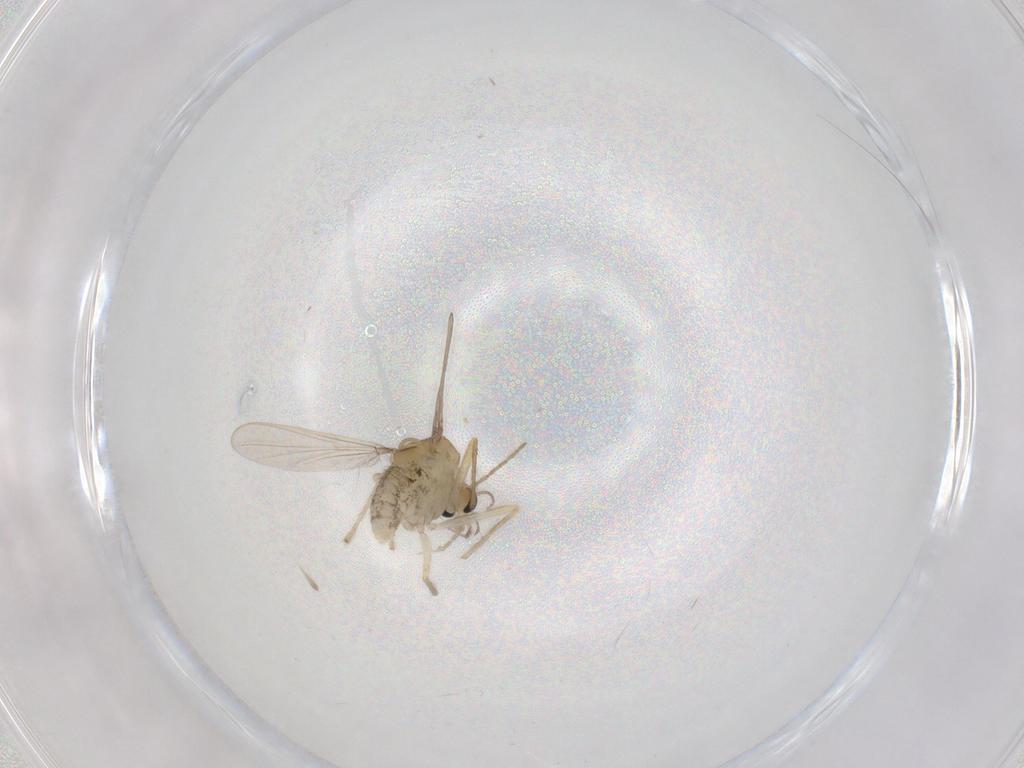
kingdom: Animalia
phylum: Arthropoda
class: Insecta
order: Diptera
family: Chironomidae
